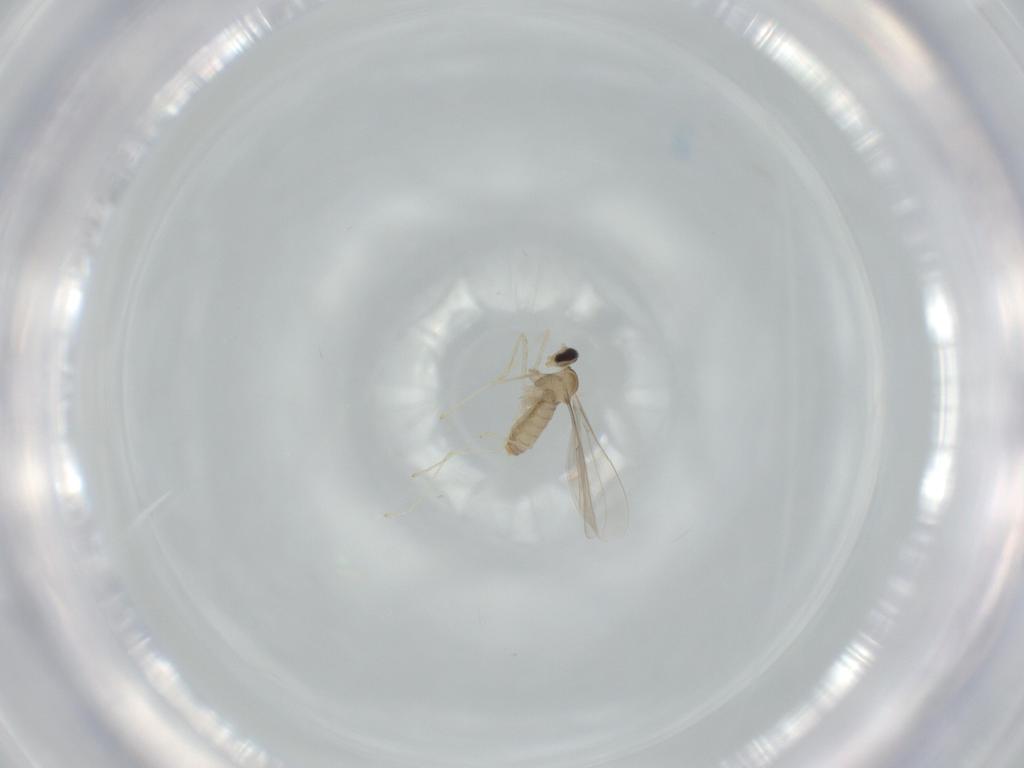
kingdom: Animalia
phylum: Arthropoda
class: Insecta
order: Diptera
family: Cecidomyiidae
